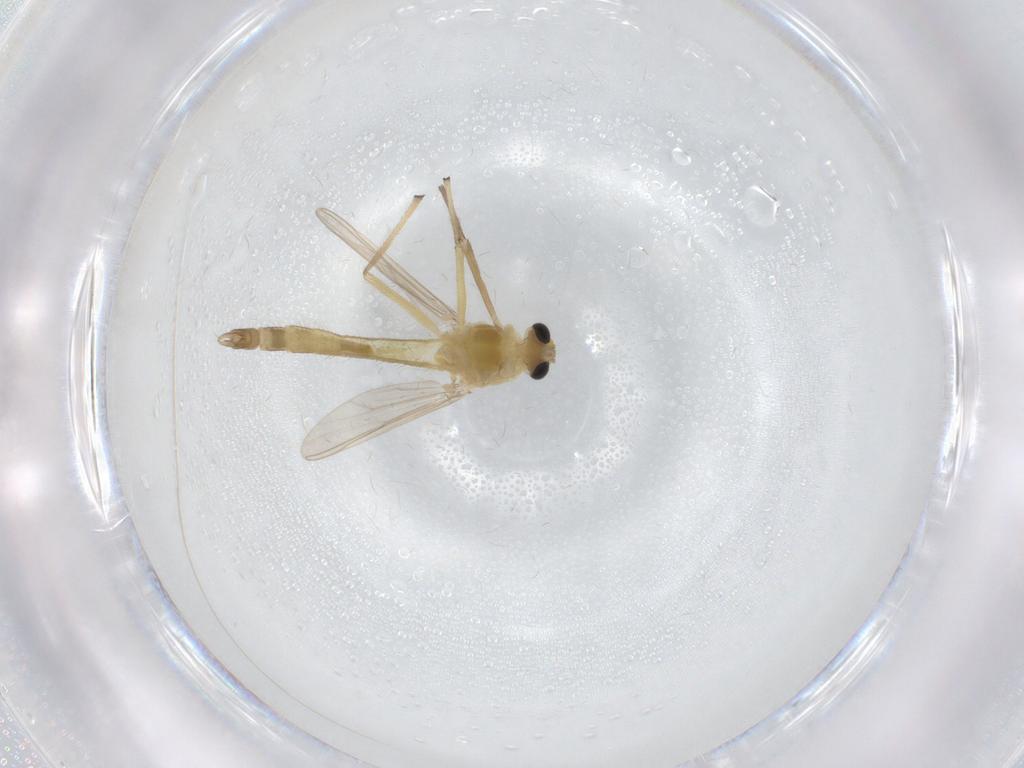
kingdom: Animalia
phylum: Arthropoda
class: Insecta
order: Diptera
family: Chironomidae
